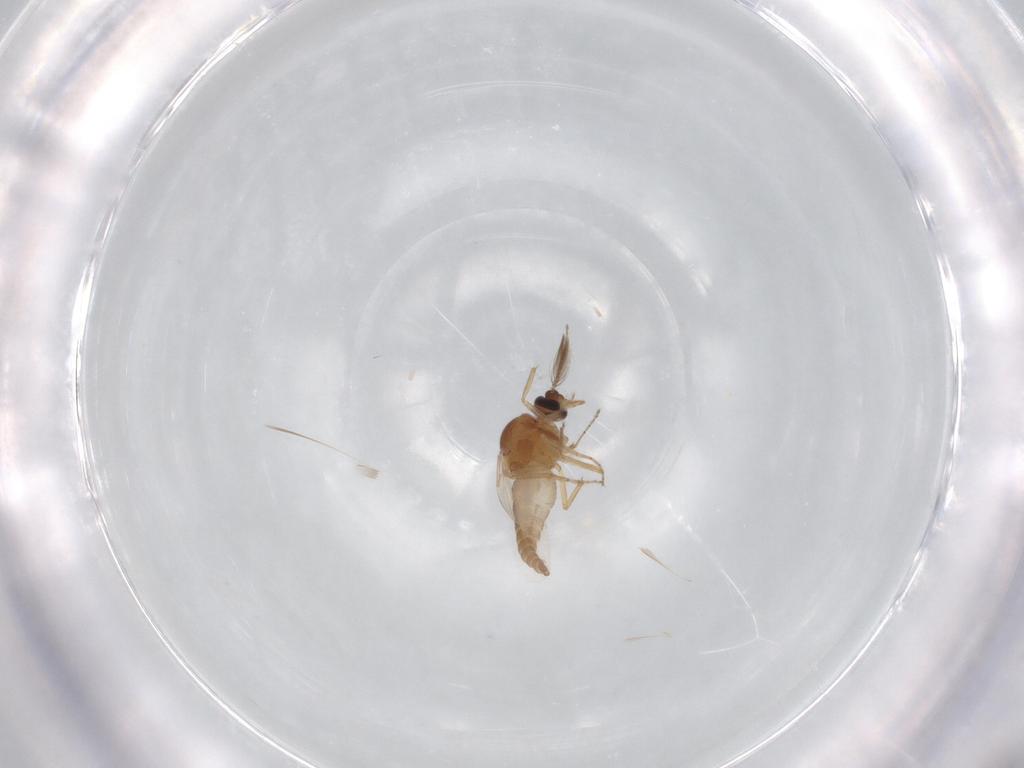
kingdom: Animalia
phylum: Arthropoda
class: Insecta
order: Diptera
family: Ceratopogonidae
